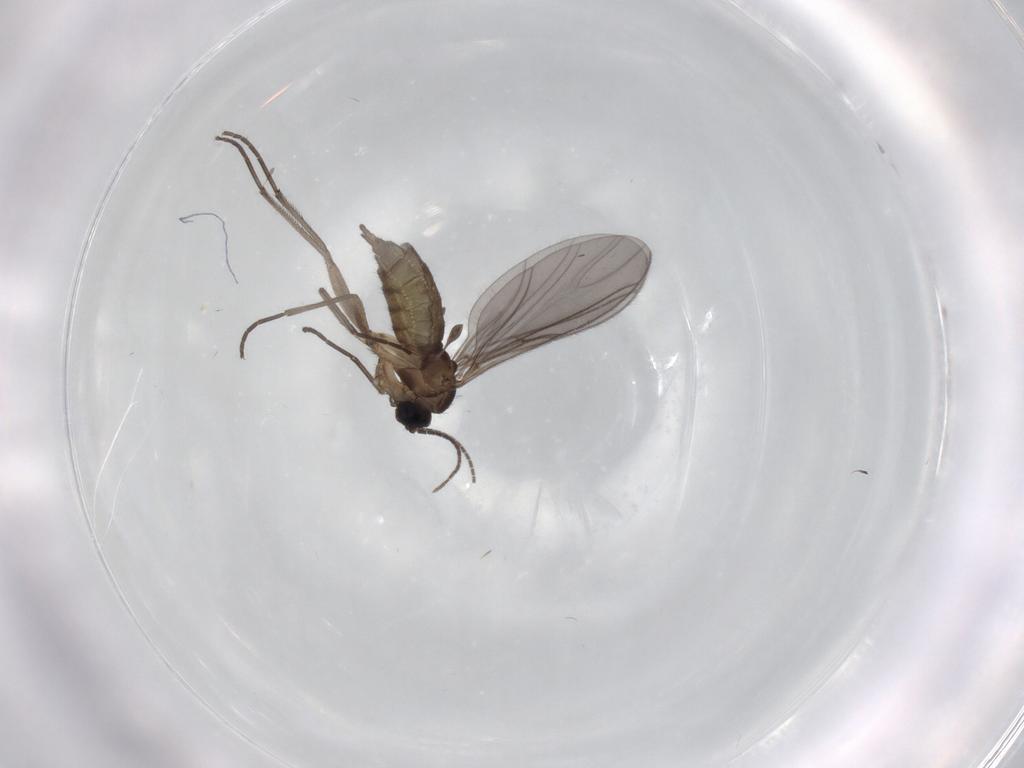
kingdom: Animalia
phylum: Arthropoda
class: Insecta
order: Diptera
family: Sciaridae
